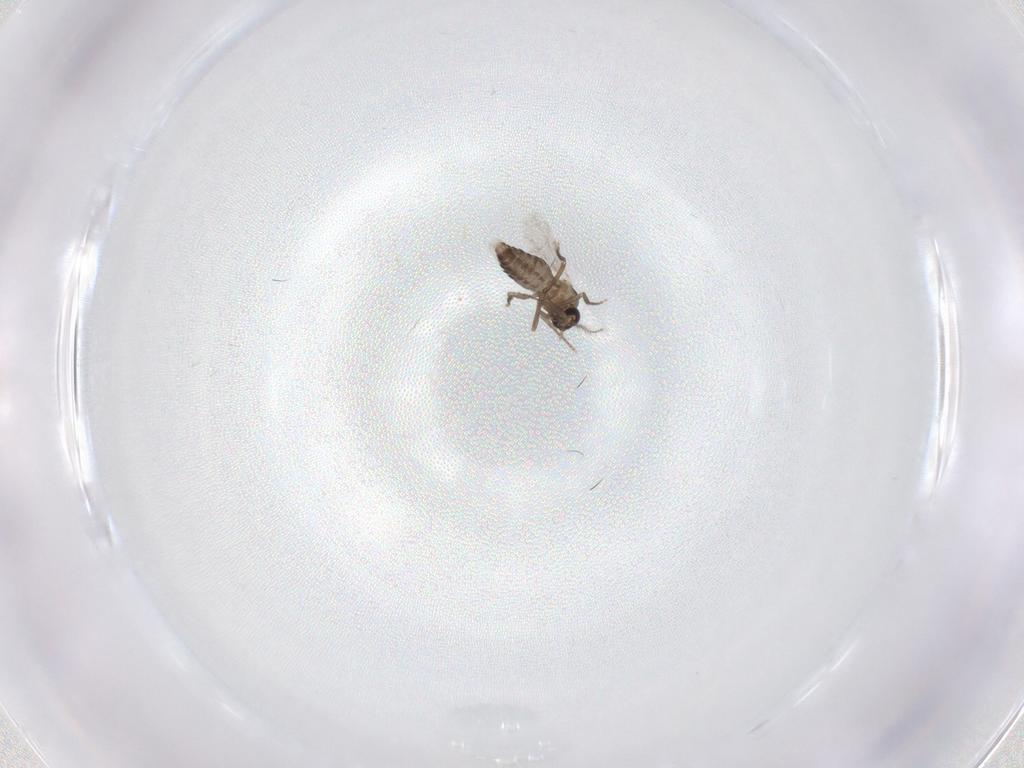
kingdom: Animalia
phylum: Arthropoda
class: Insecta
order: Diptera
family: Ceratopogonidae
